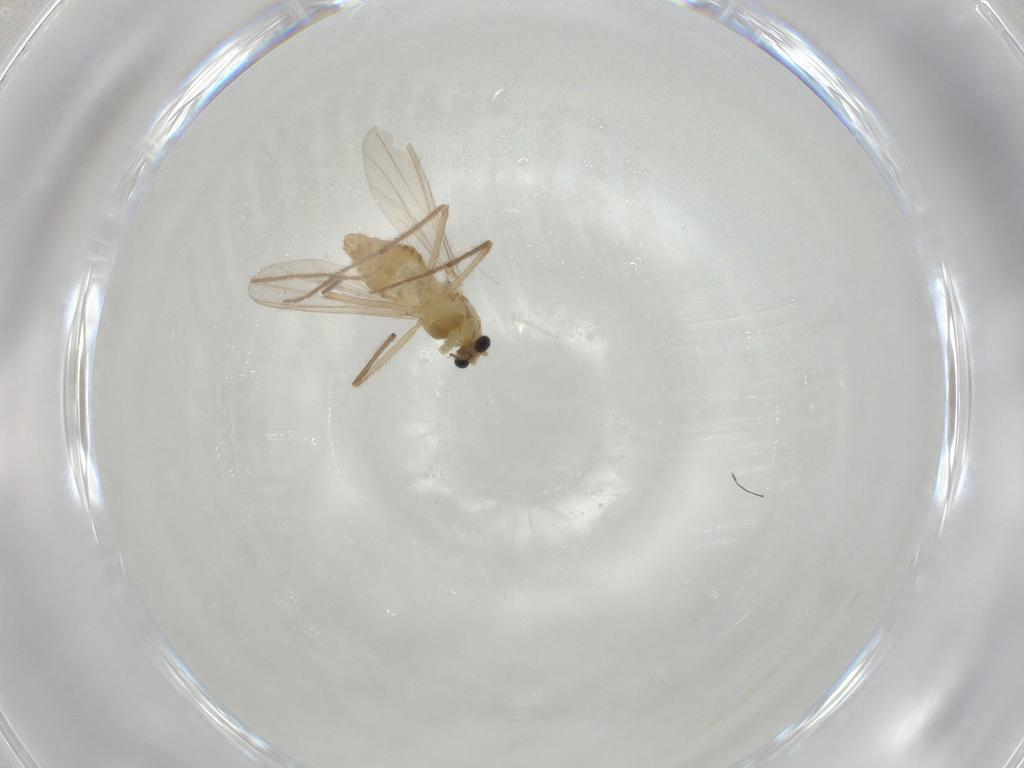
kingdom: Animalia
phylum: Arthropoda
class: Insecta
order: Diptera
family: Chironomidae
